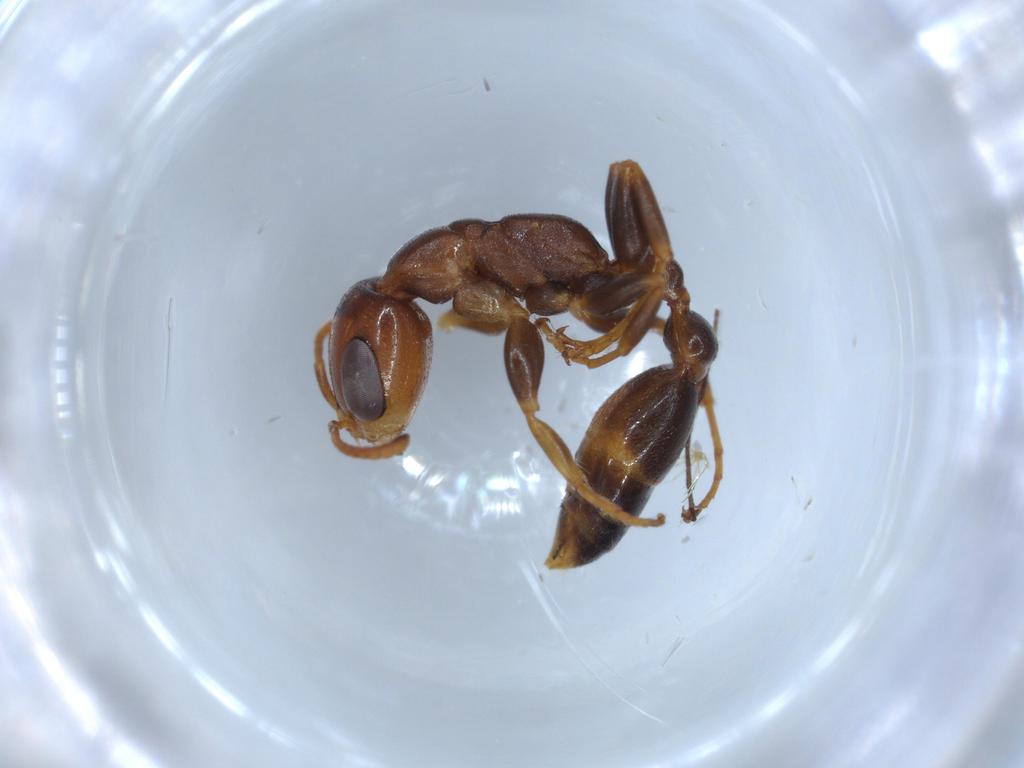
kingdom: Animalia
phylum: Arthropoda
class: Insecta
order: Hymenoptera
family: Formicidae
